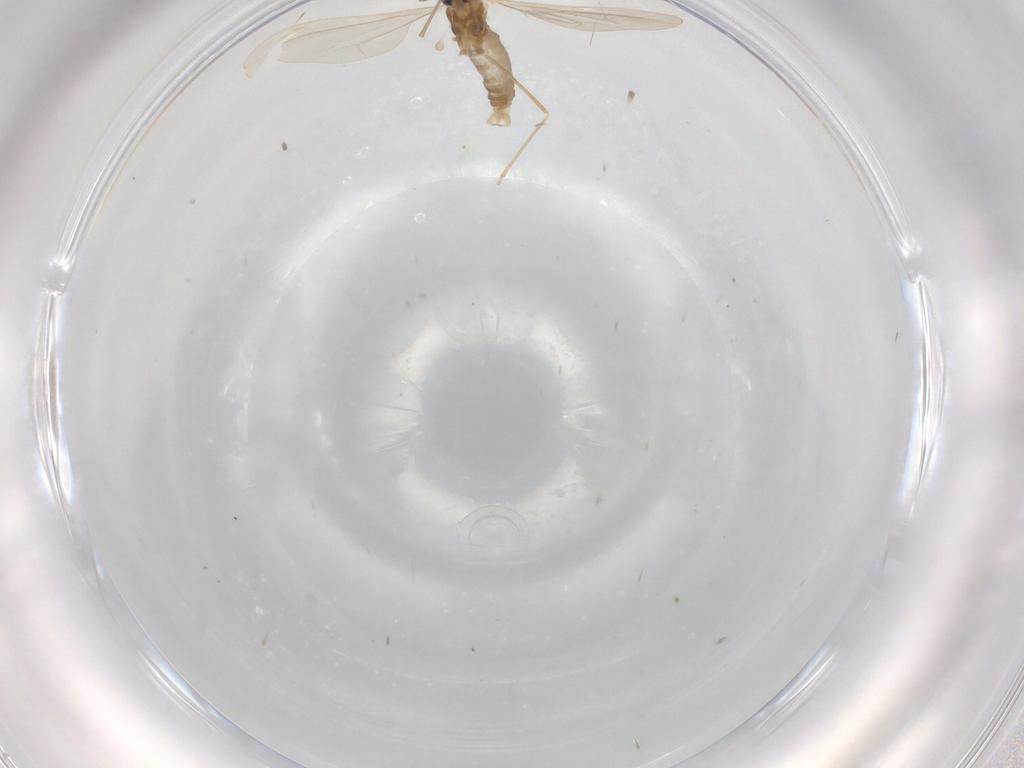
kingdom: Animalia
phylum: Arthropoda
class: Insecta
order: Diptera
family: Cecidomyiidae
